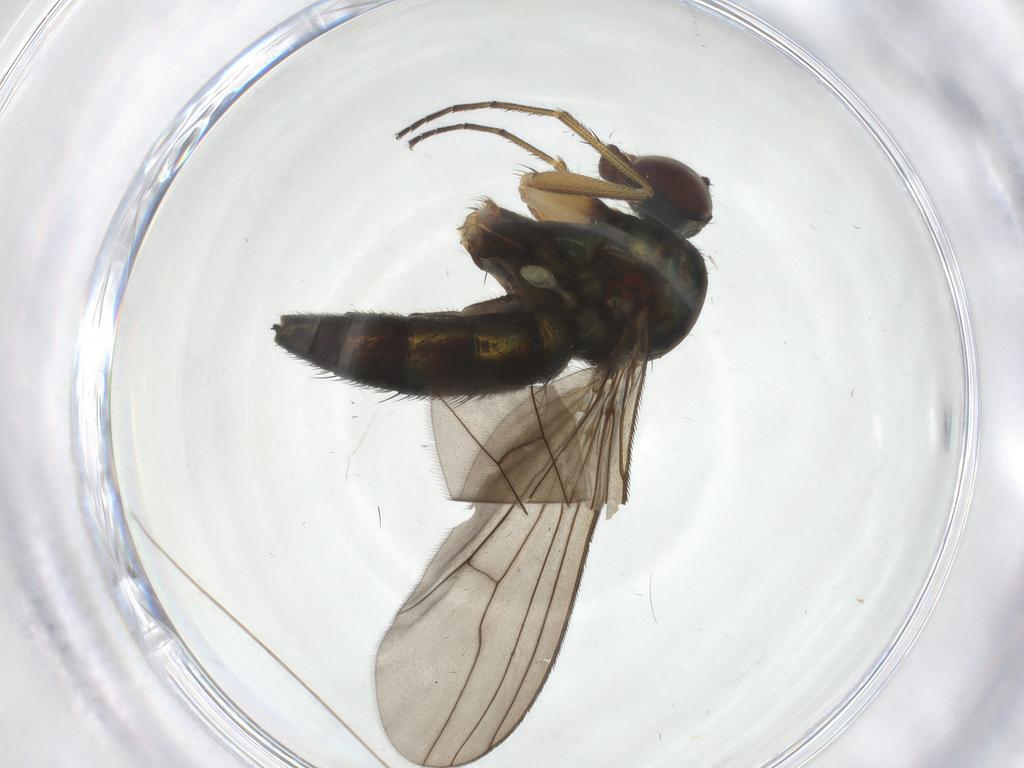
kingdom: Animalia
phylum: Arthropoda
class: Insecta
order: Diptera
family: Dolichopodidae
